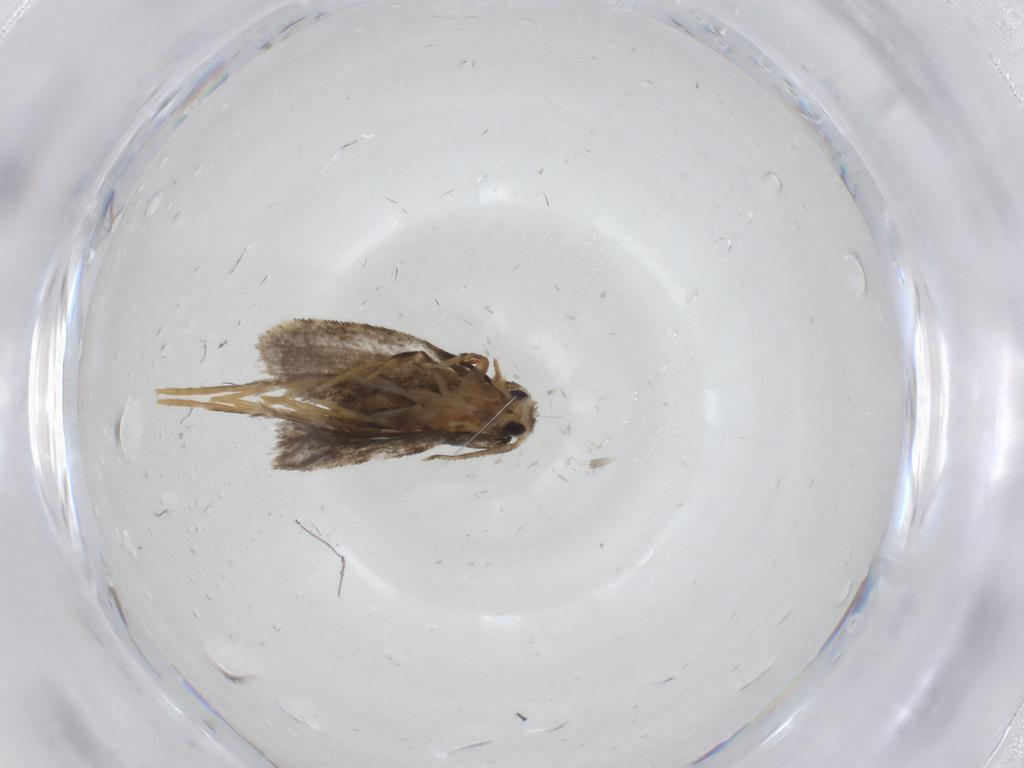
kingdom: Animalia
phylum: Arthropoda
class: Insecta
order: Lepidoptera
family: Psychidae
